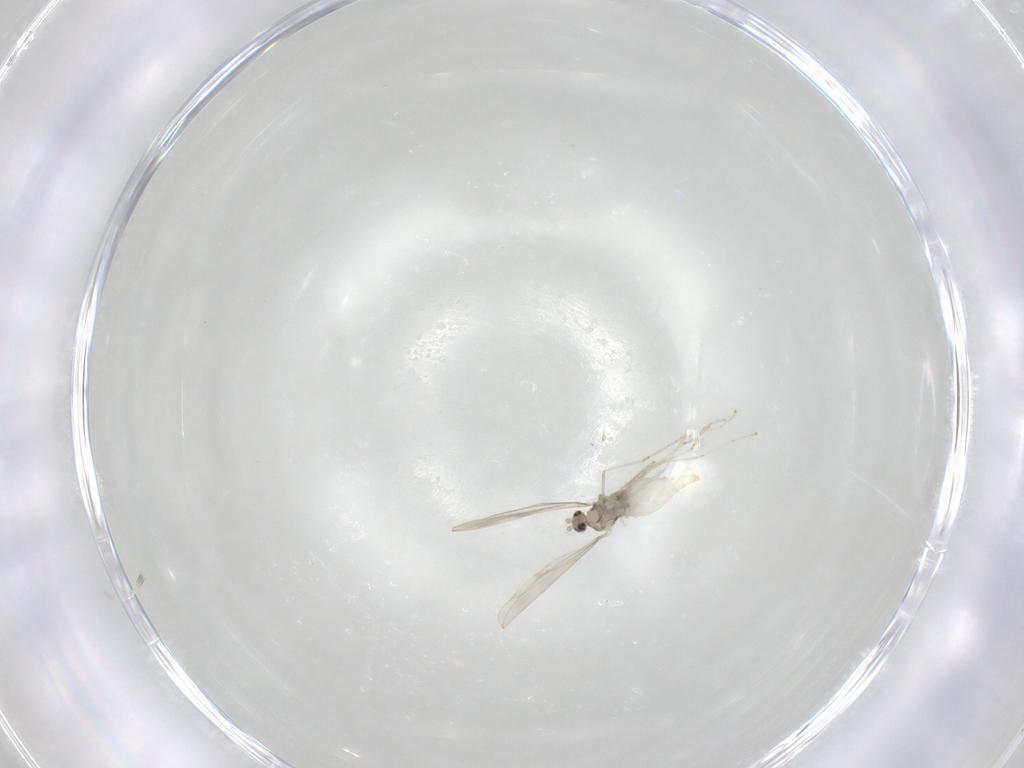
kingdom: Animalia
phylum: Arthropoda
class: Insecta
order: Diptera
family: Cecidomyiidae
